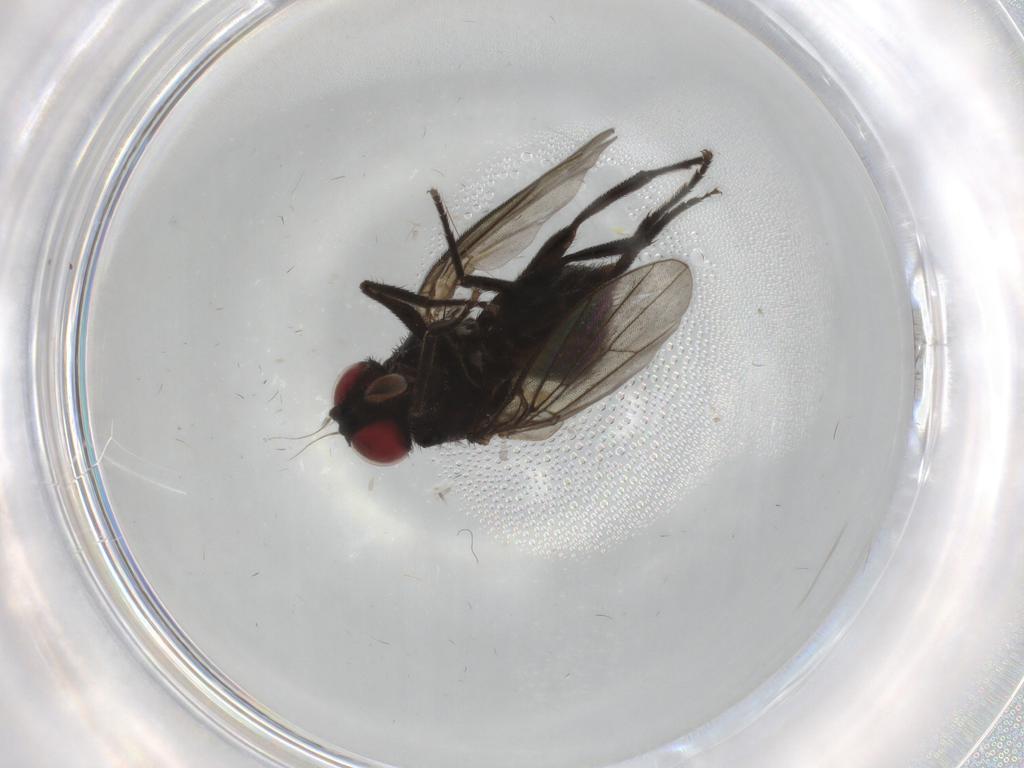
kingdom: Animalia
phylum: Arthropoda
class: Insecta
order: Diptera
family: Agromyzidae
